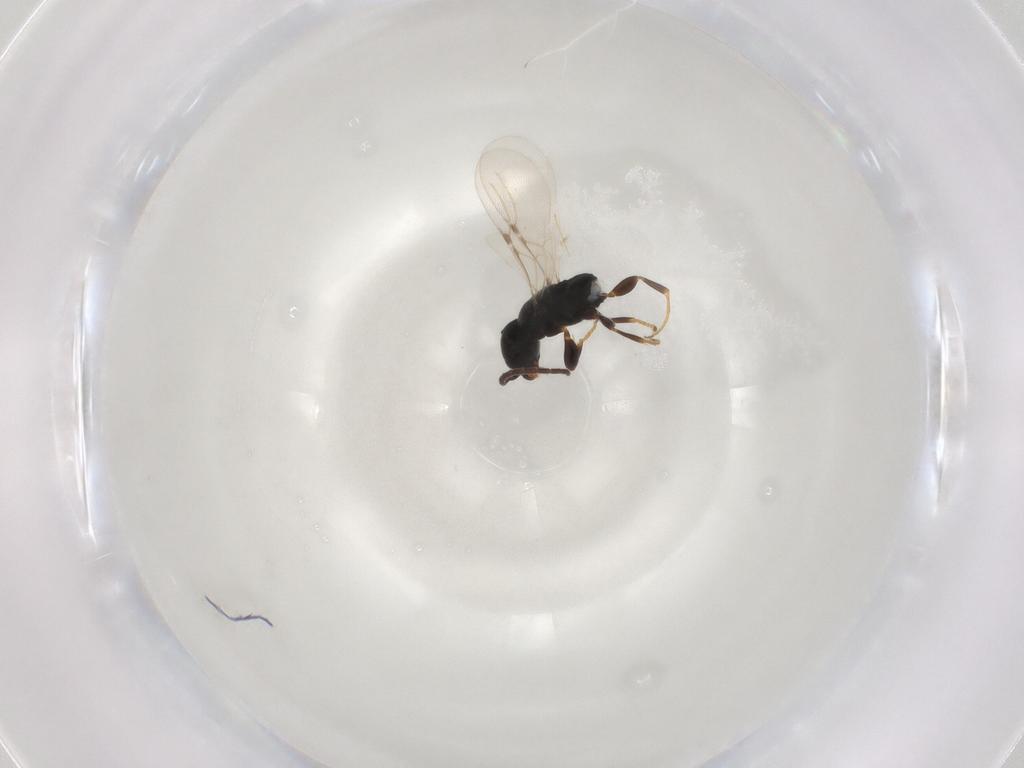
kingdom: Animalia
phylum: Arthropoda
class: Insecta
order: Hymenoptera
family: Bethylidae
